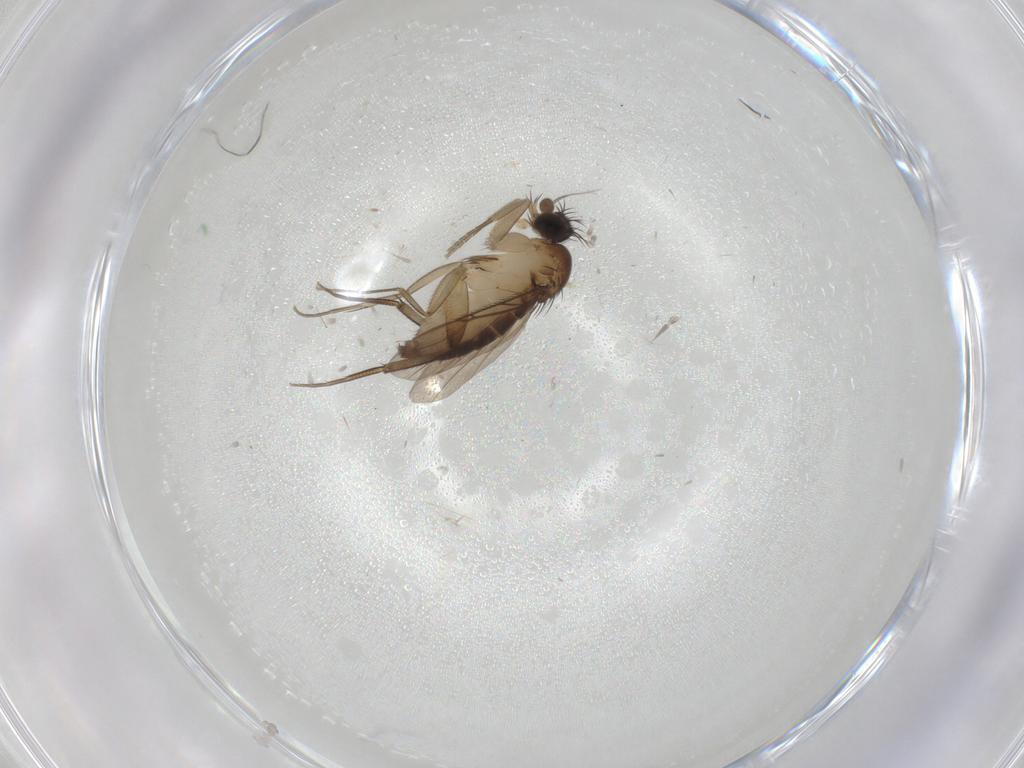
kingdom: Animalia
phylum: Arthropoda
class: Insecta
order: Diptera
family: Phoridae
